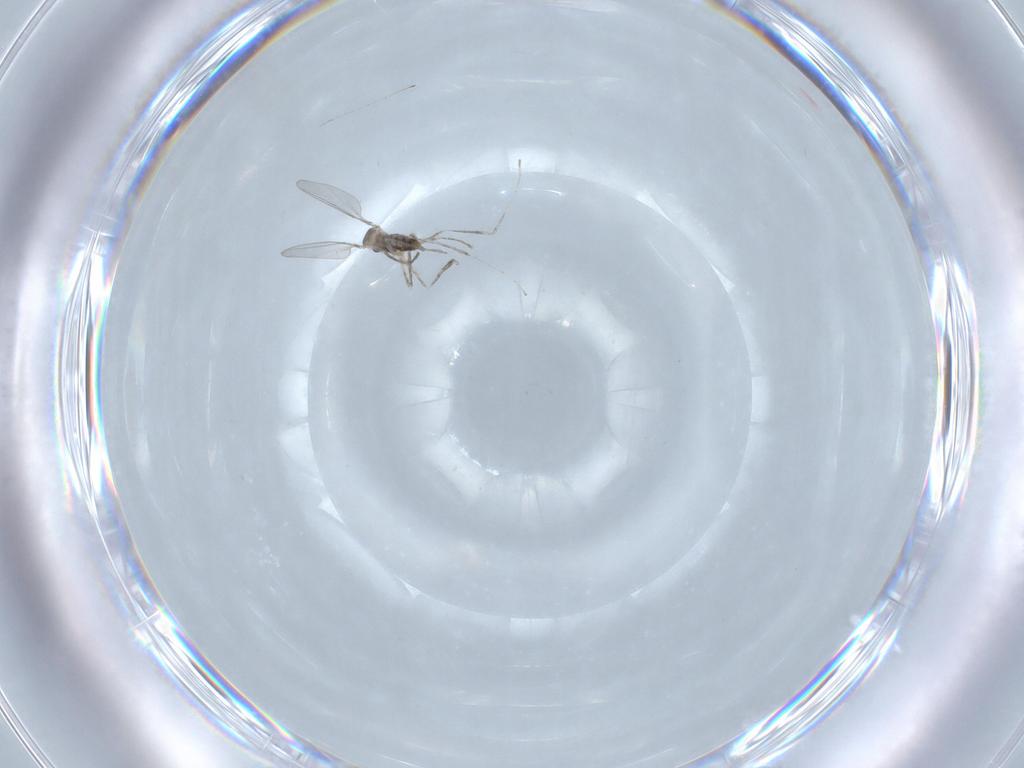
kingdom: Animalia
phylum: Arthropoda
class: Insecta
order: Diptera
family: Cecidomyiidae
